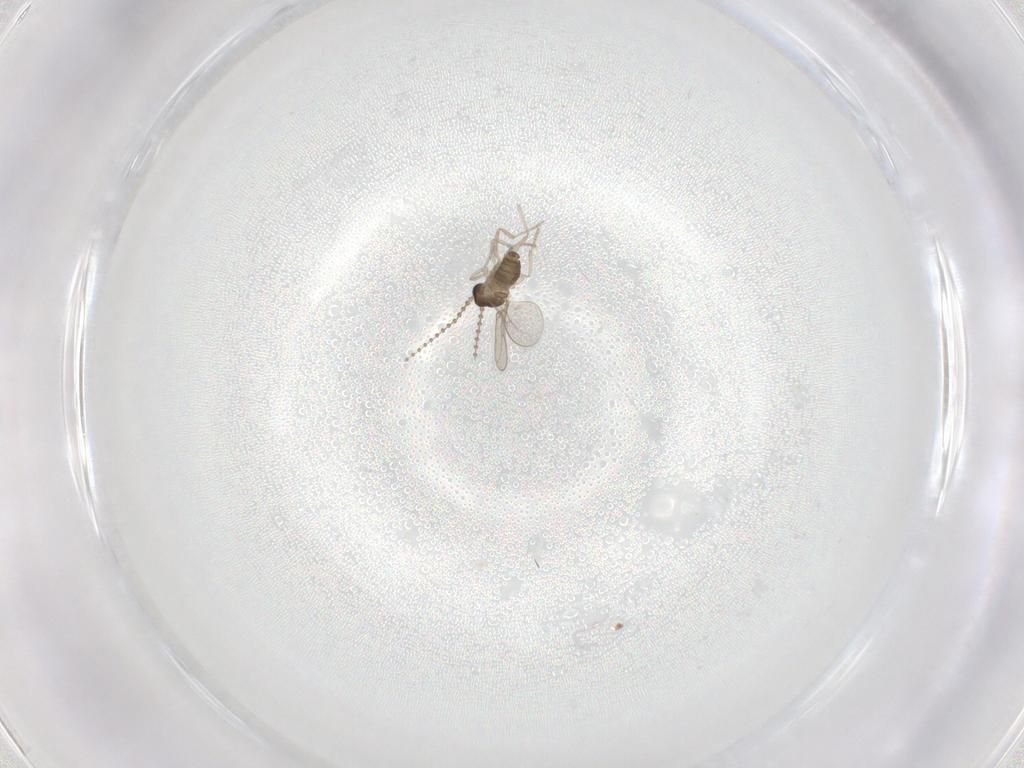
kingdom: Animalia
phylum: Arthropoda
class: Insecta
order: Diptera
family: Cecidomyiidae
